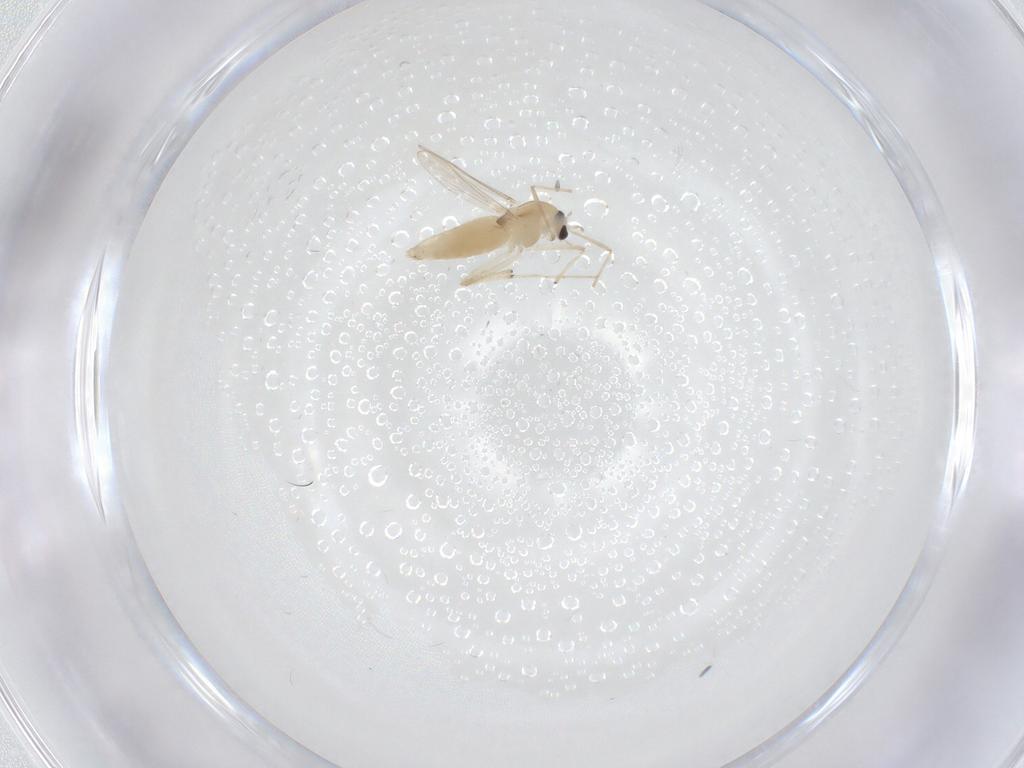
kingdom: Animalia
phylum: Arthropoda
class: Insecta
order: Diptera
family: Chironomidae
